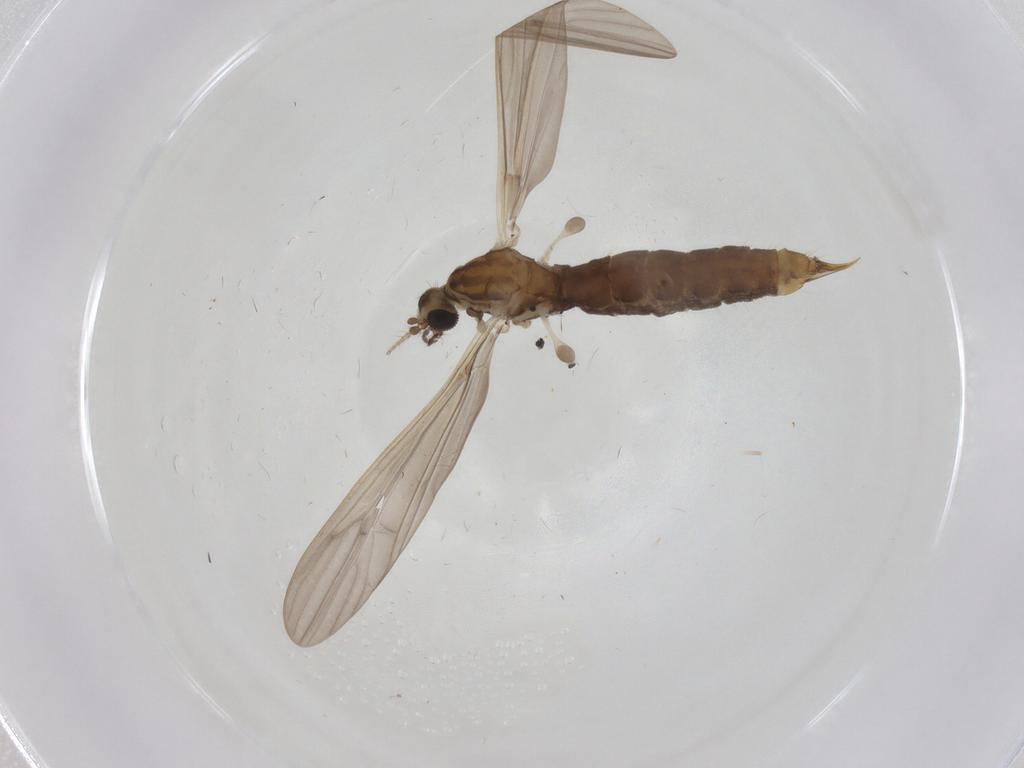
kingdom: Animalia
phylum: Arthropoda
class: Insecta
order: Diptera
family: Limoniidae
